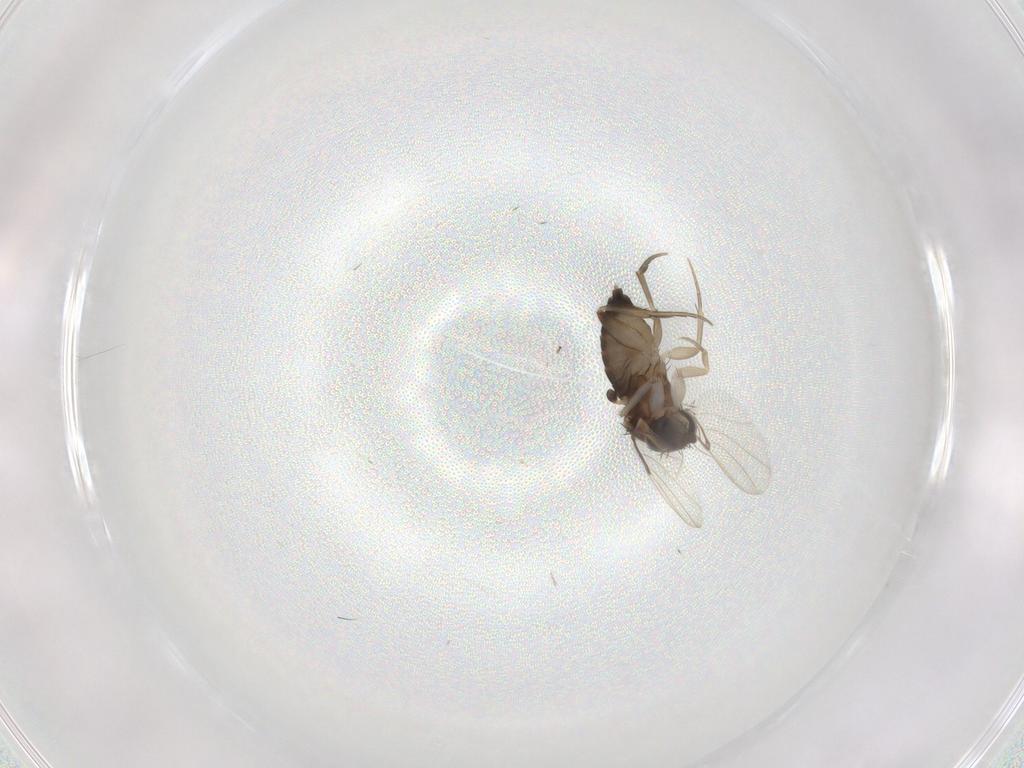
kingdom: Animalia
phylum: Arthropoda
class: Insecta
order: Diptera
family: Phoridae
